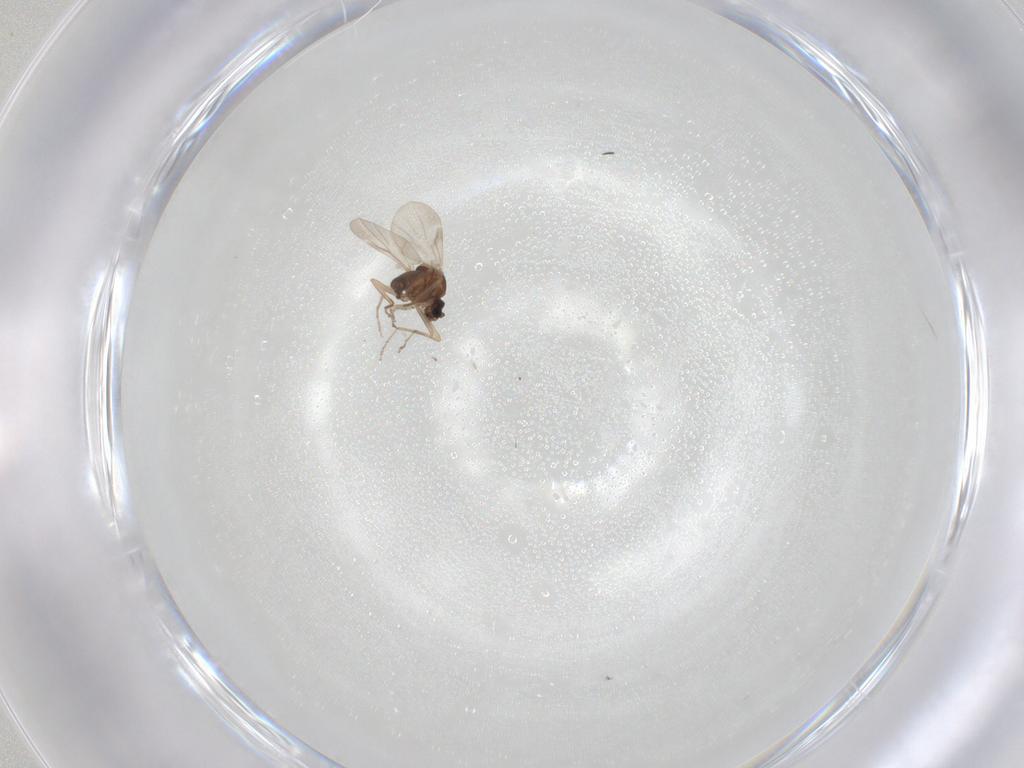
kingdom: Animalia
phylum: Arthropoda
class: Insecta
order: Diptera
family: Ceratopogonidae
